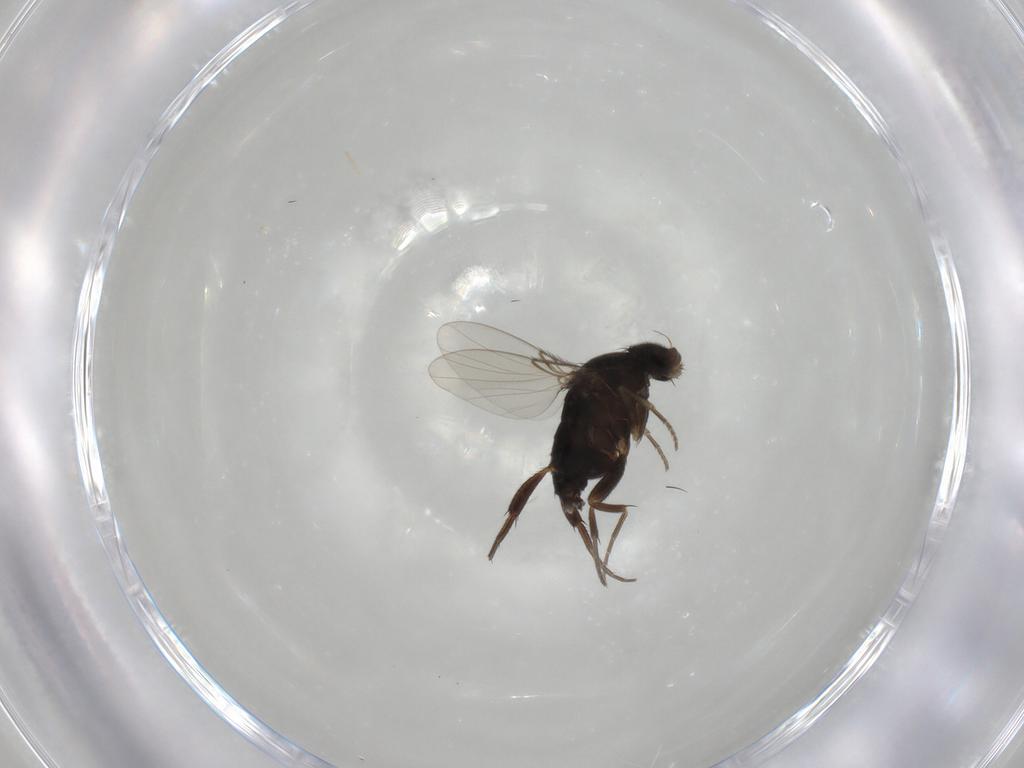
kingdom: Animalia
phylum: Arthropoda
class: Insecta
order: Diptera
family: Phoridae
